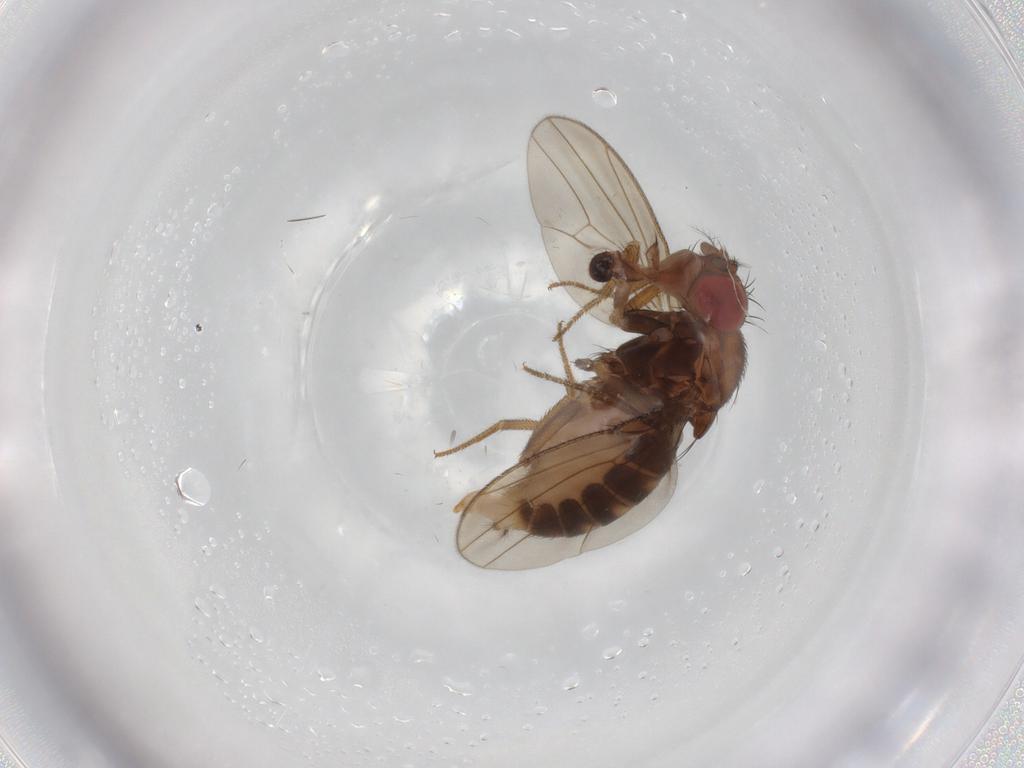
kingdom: Animalia
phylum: Arthropoda
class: Insecta
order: Diptera
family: Drosophilidae
